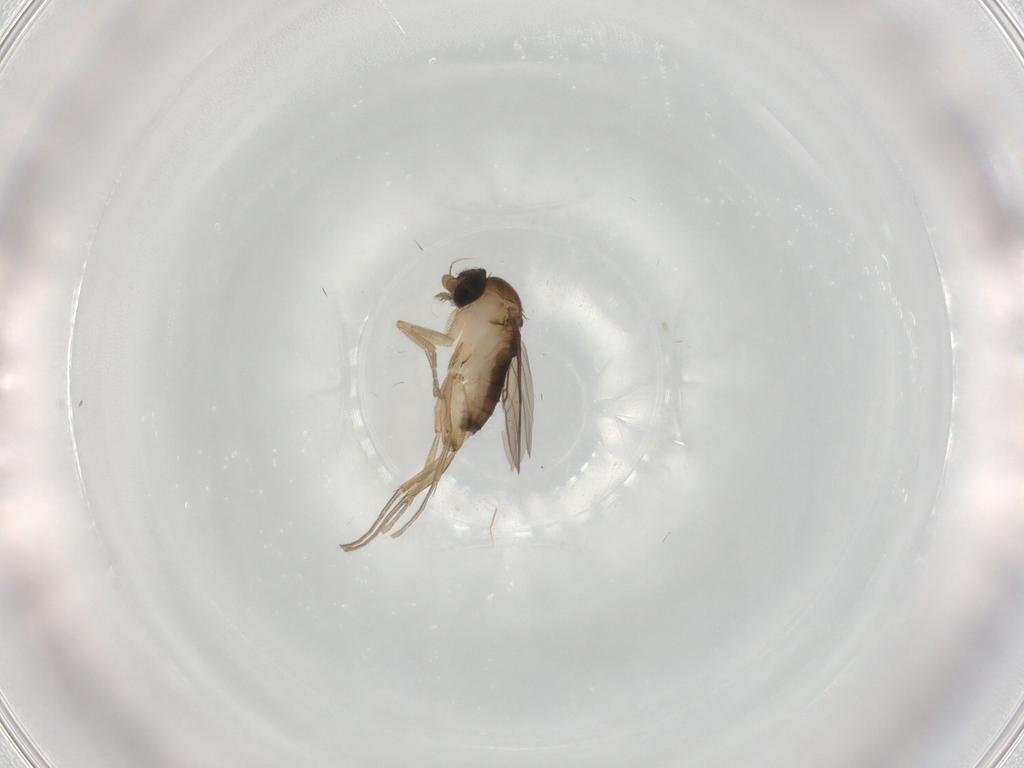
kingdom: Animalia
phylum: Arthropoda
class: Insecta
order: Diptera
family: Phoridae
